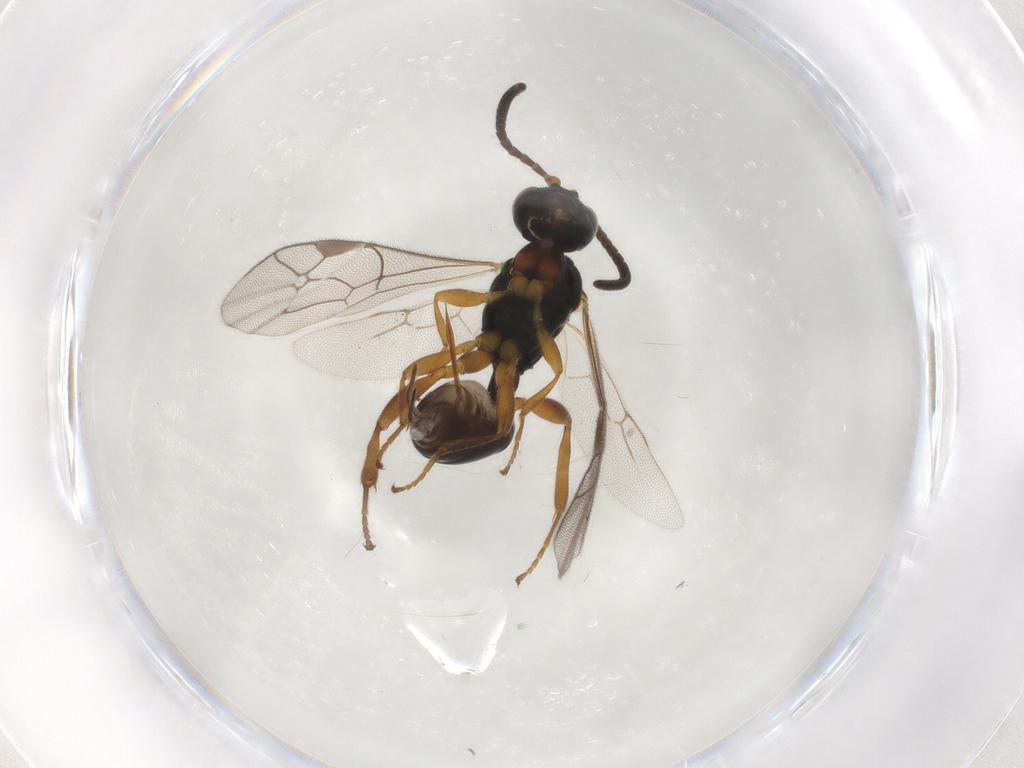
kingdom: Animalia
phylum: Arthropoda
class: Insecta
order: Hymenoptera
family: Ichneumonidae
